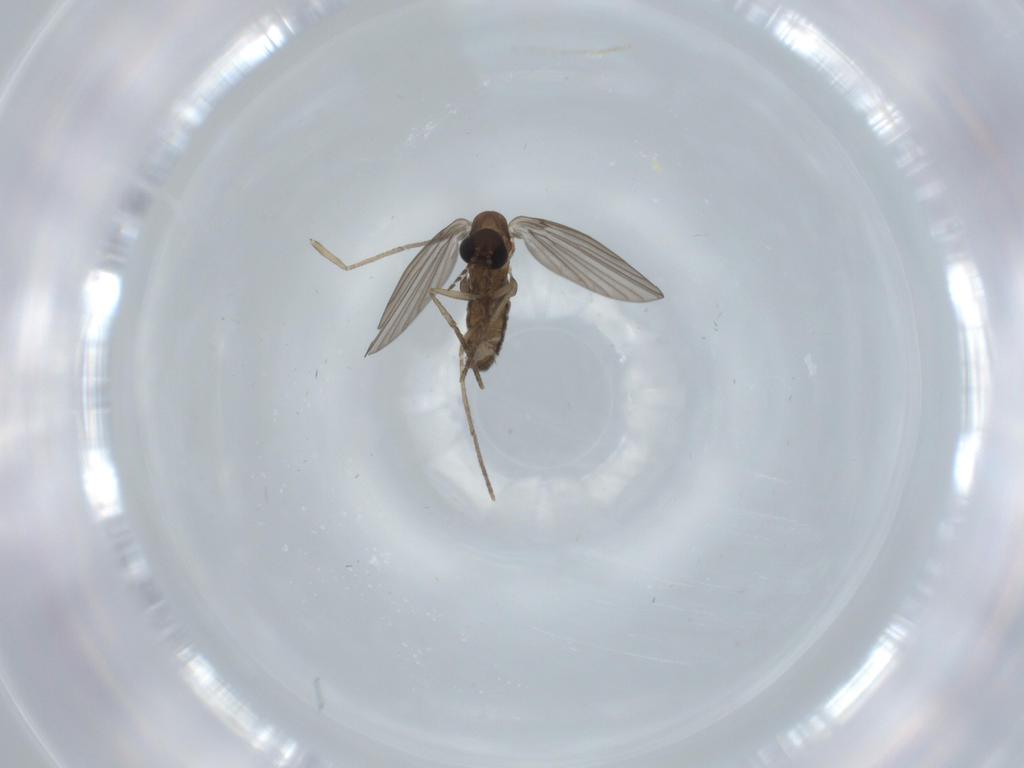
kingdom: Animalia
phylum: Arthropoda
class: Insecta
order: Diptera
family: Psychodidae
